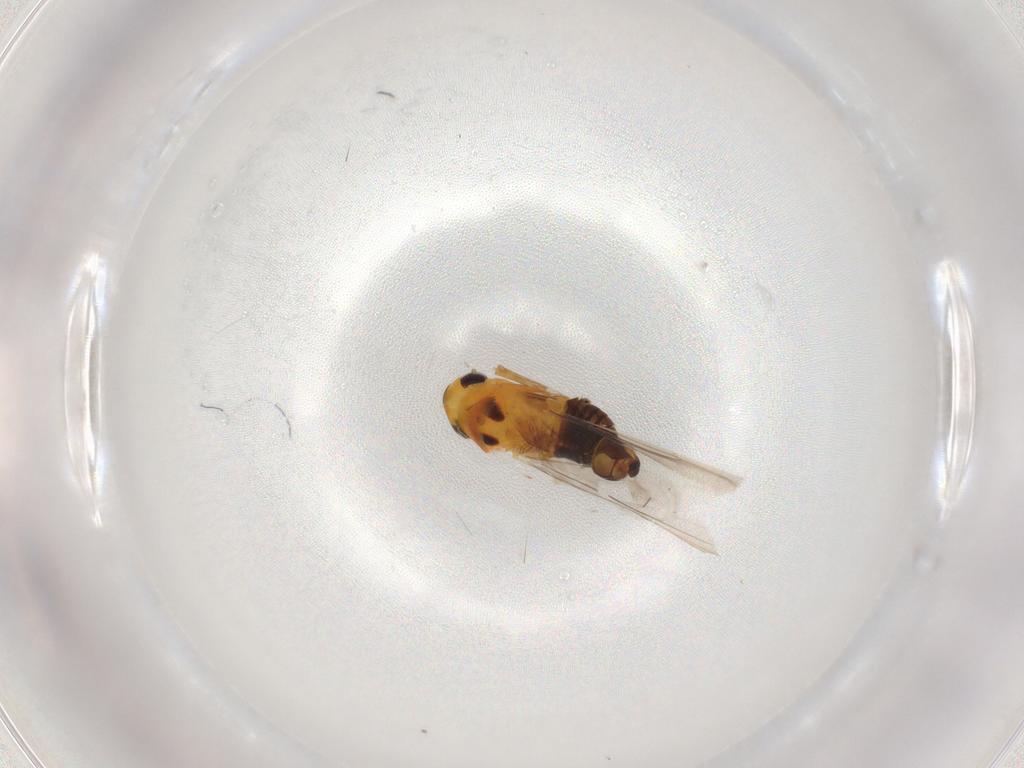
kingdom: Animalia
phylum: Arthropoda
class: Insecta
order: Hemiptera
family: Cicadellidae
